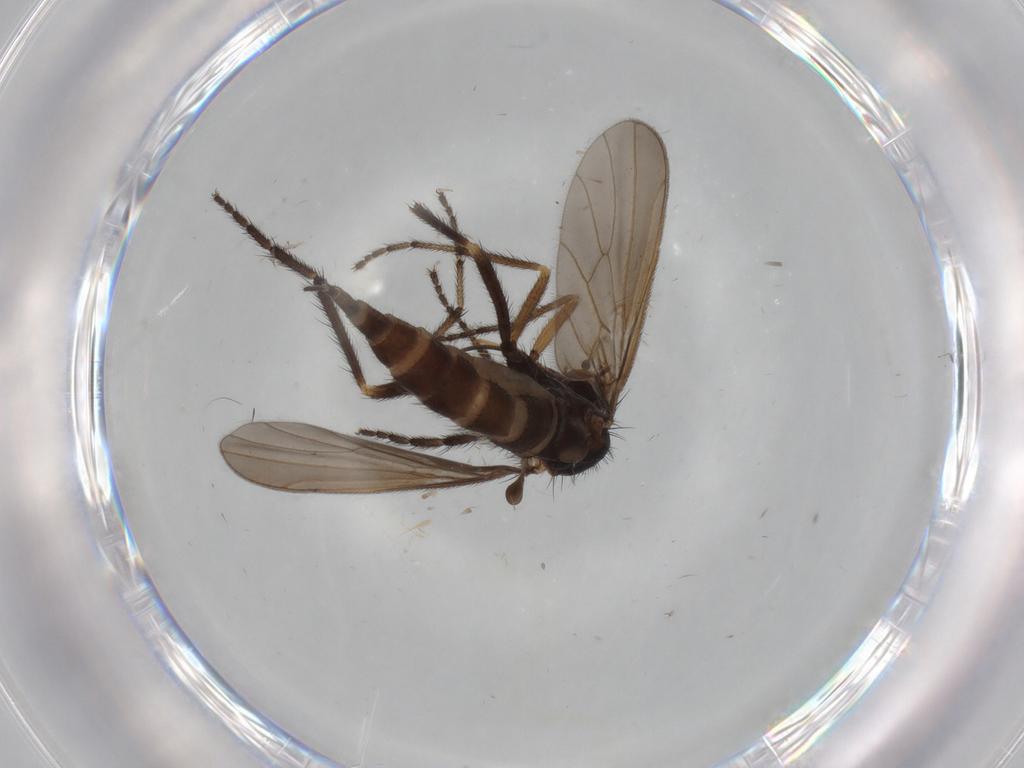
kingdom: Animalia
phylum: Arthropoda
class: Insecta
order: Diptera
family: Empididae
